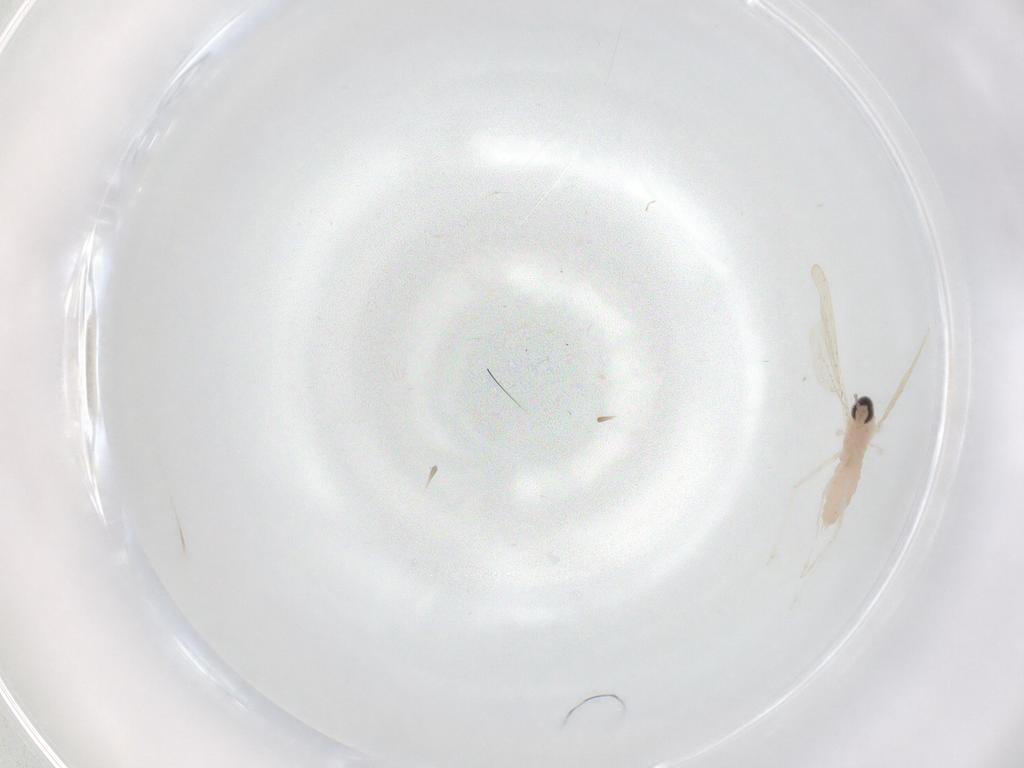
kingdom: Animalia
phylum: Arthropoda
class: Insecta
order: Diptera
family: Cecidomyiidae
